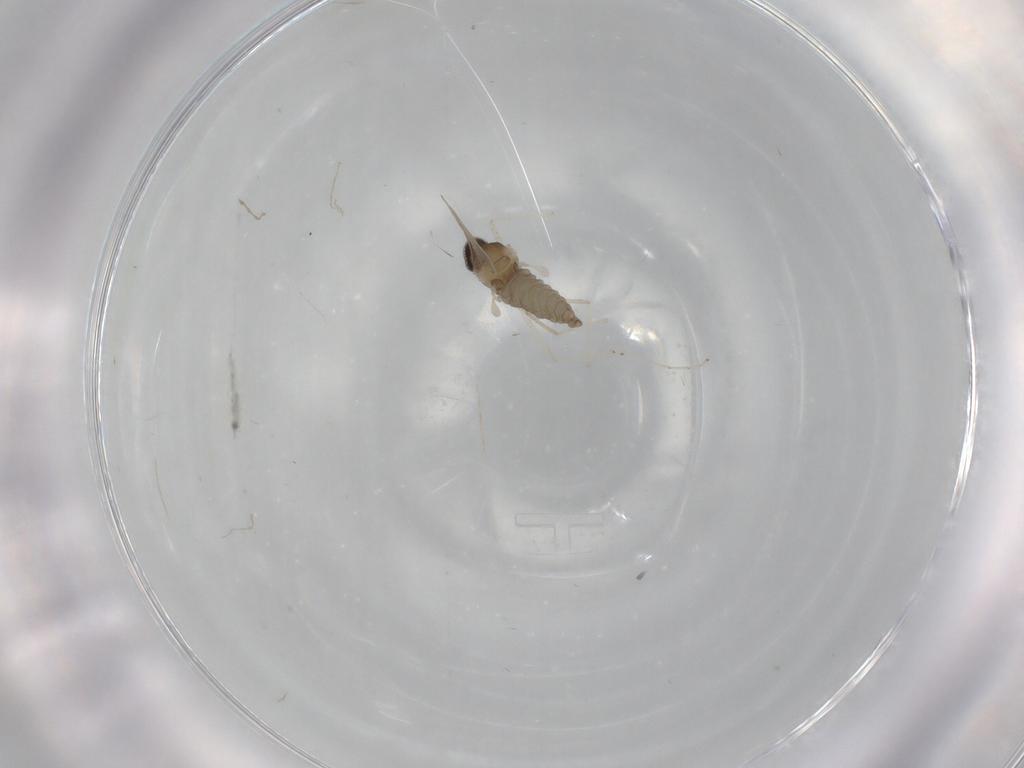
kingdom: Animalia
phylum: Arthropoda
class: Insecta
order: Diptera
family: Cecidomyiidae
